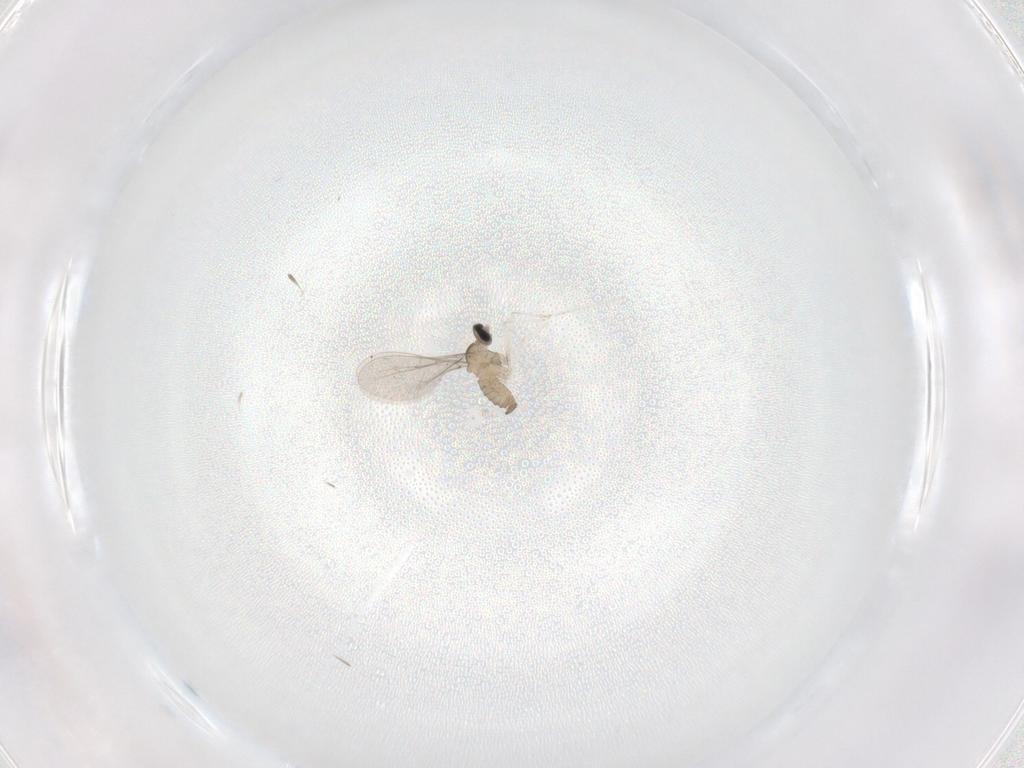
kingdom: Animalia
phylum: Arthropoda
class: Insecta
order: Diptera
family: Cecidomyiidae
